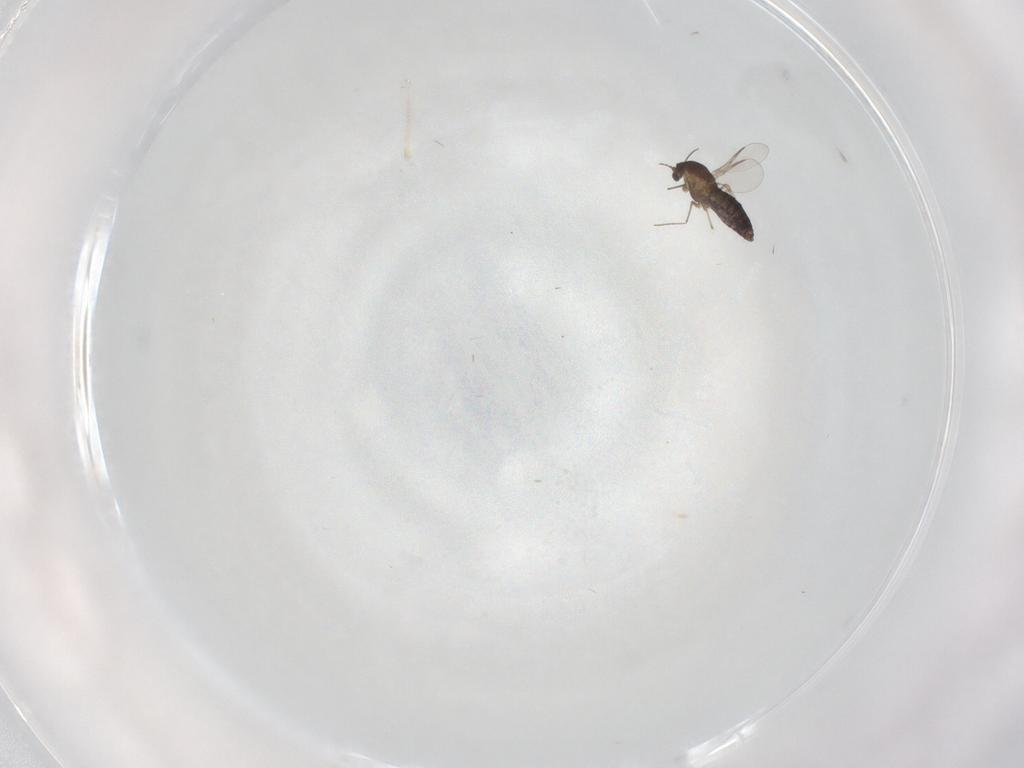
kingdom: Animalia
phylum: Arthropoda
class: Insecta
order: Diptera
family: Chironomidae
